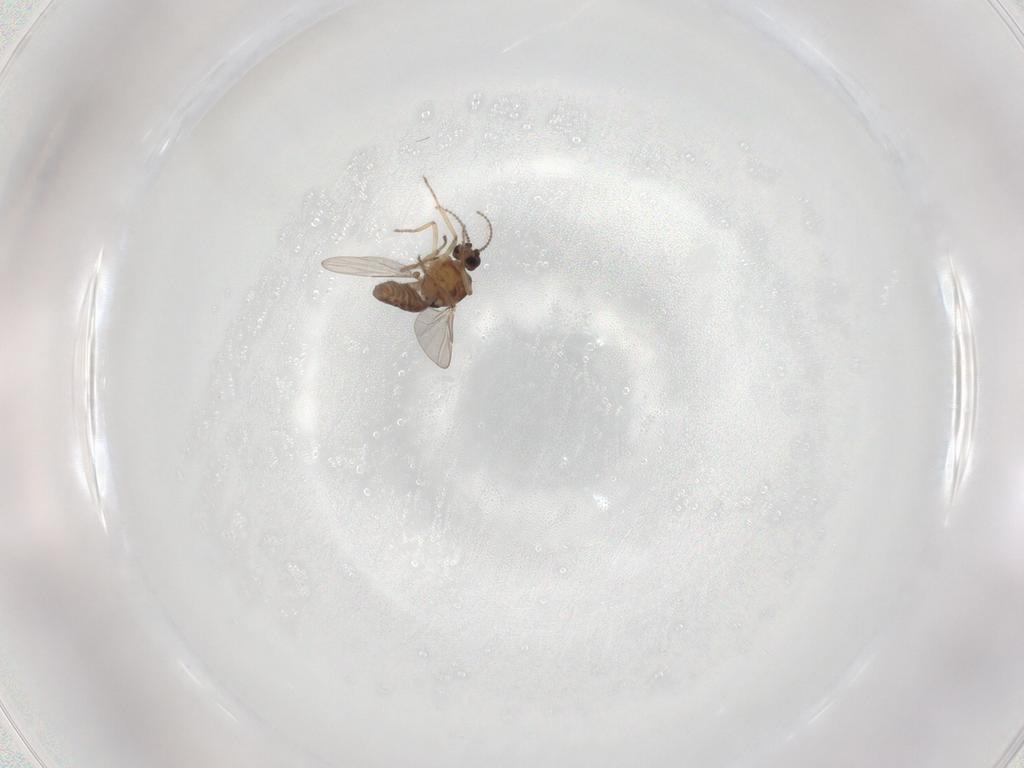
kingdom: Animalia
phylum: Arthropoda
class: Insecta
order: Diptera
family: Ceratopogonidae
